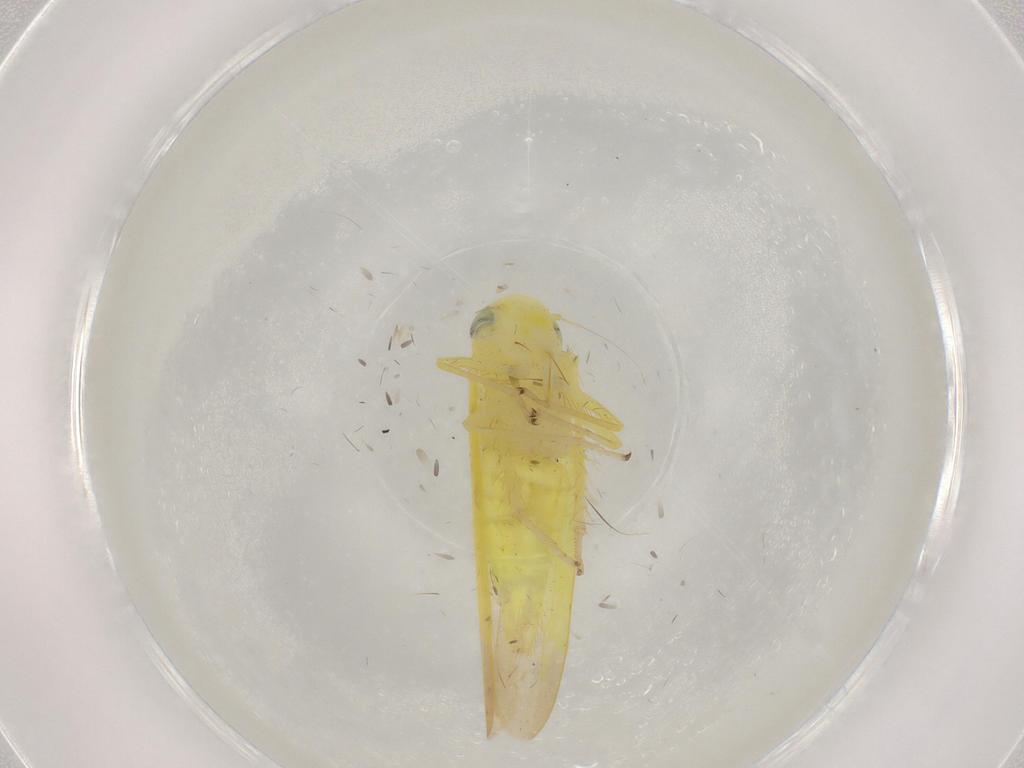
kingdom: Animalia
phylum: Arthropoda
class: Insecta
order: Hemiptera
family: Cicadellidae
